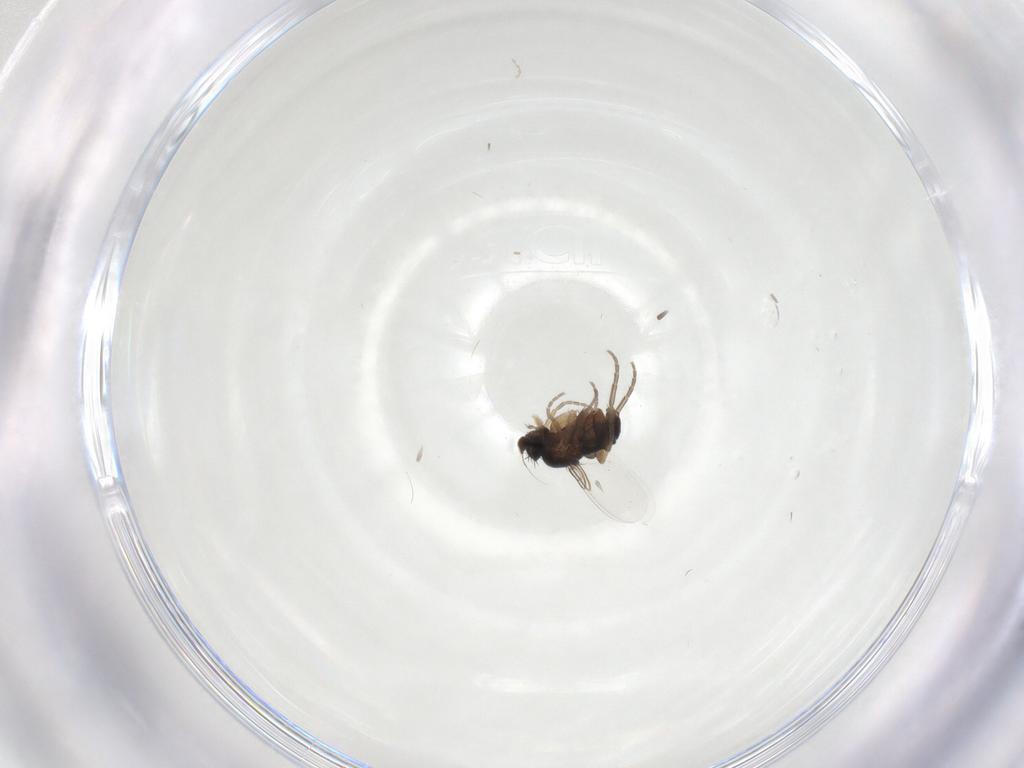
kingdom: Animalia
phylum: Arthropoda
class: Insecta
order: Diptera
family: Phoridae
